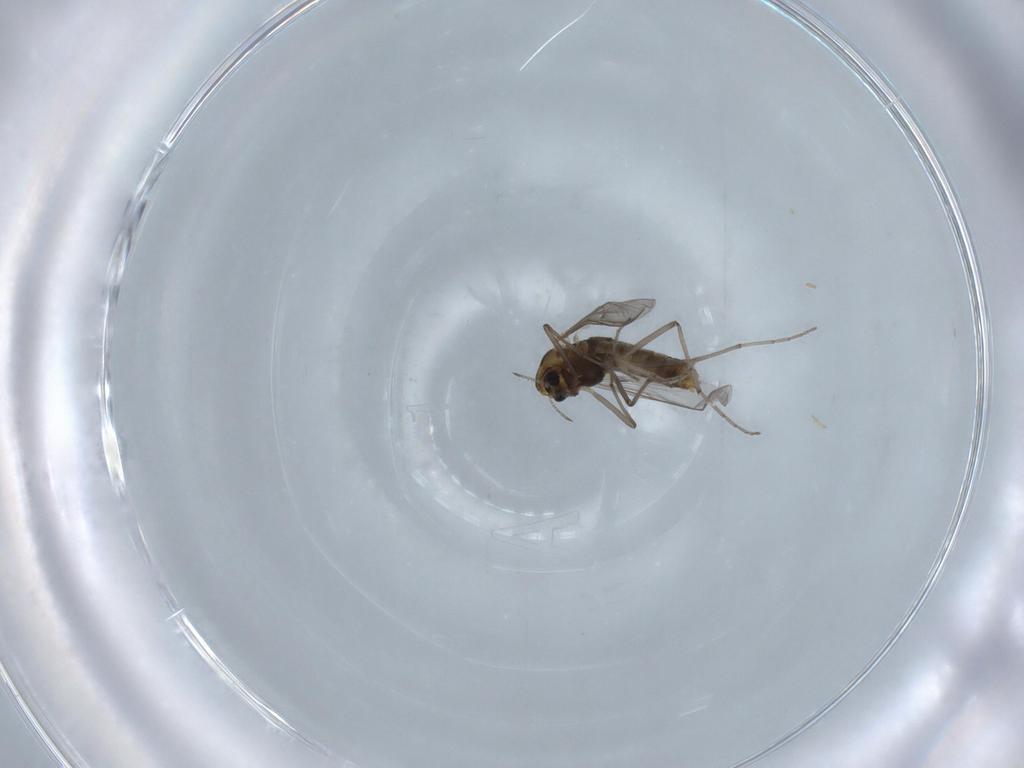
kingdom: Animalia
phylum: Arthropoda
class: Insecta
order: Diptera
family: Chironomidae
